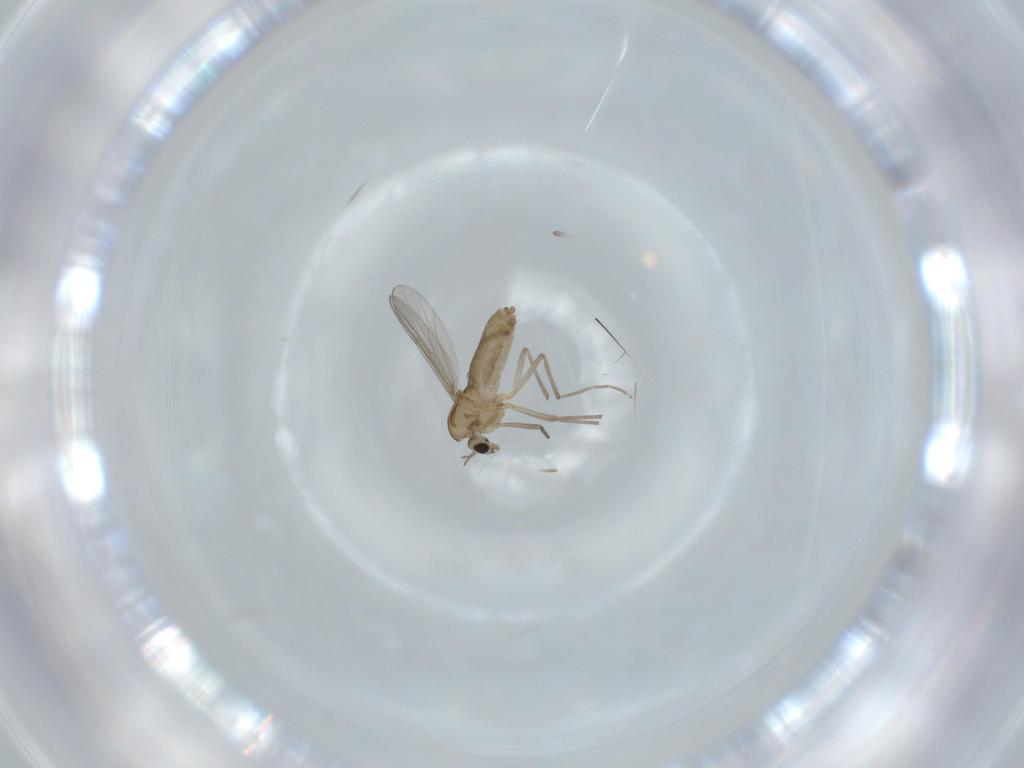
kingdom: Animalia
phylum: Arthropoda
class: Insecta
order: Diptera
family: Chironomidae
